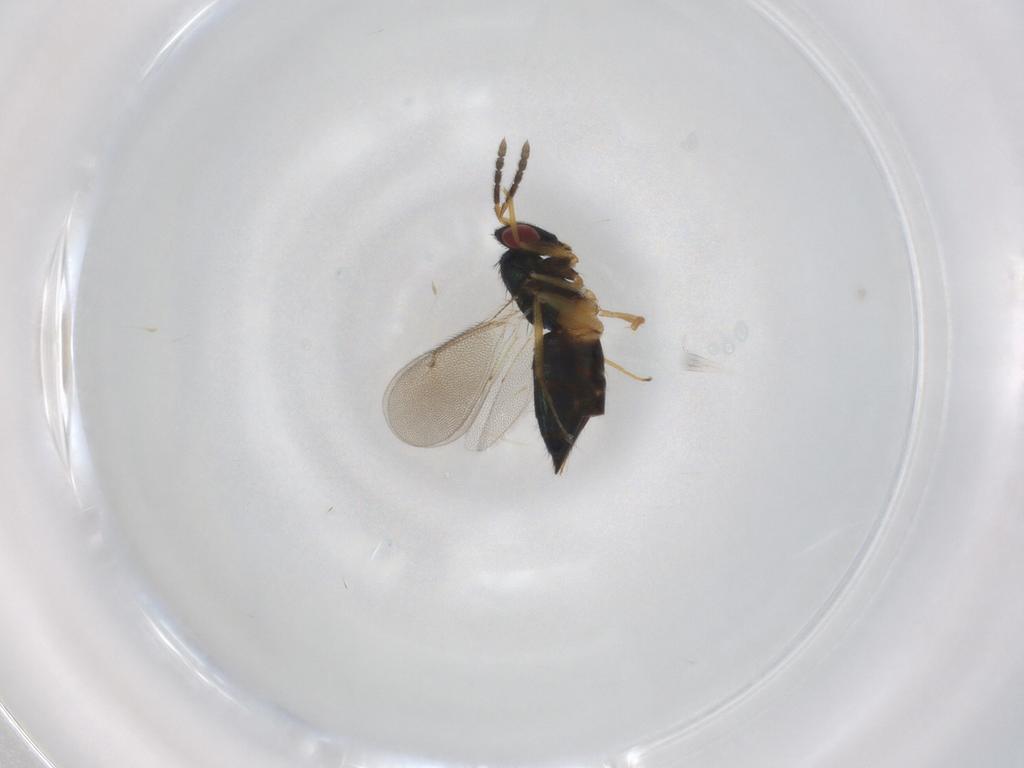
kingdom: Animalia
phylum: Arthropoda
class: Insecta
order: Hymenoptera
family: Eulophidae
